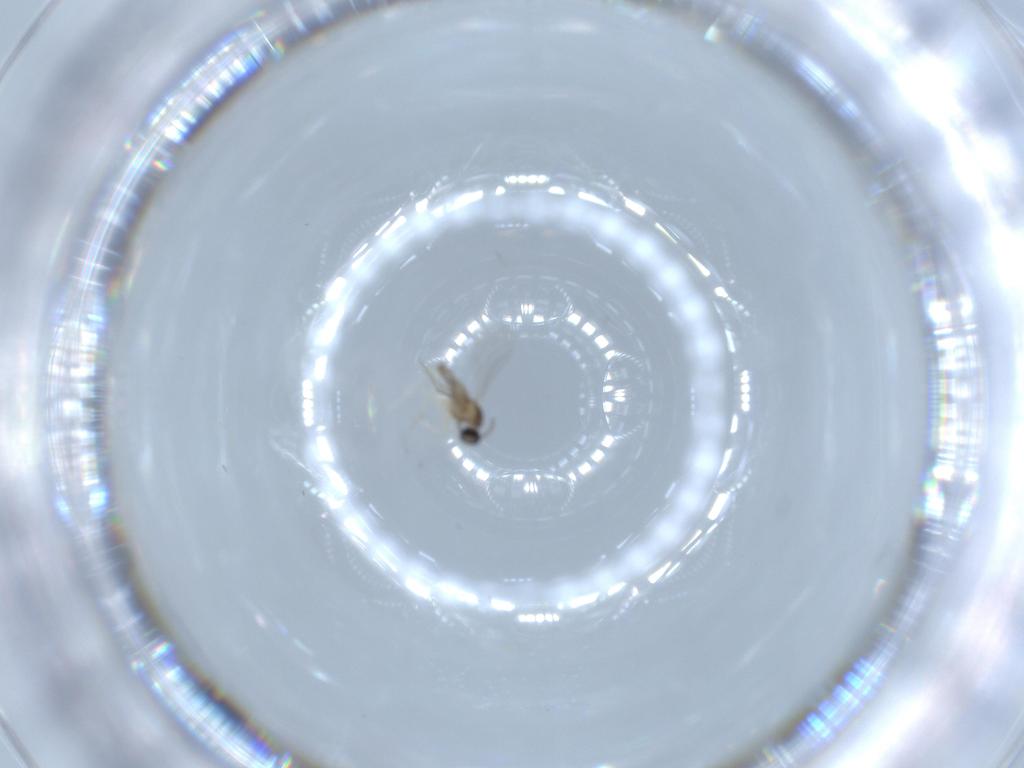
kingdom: Animalia
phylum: Arthropoda
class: Insecta
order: Diptera
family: Cecidomyiidae
